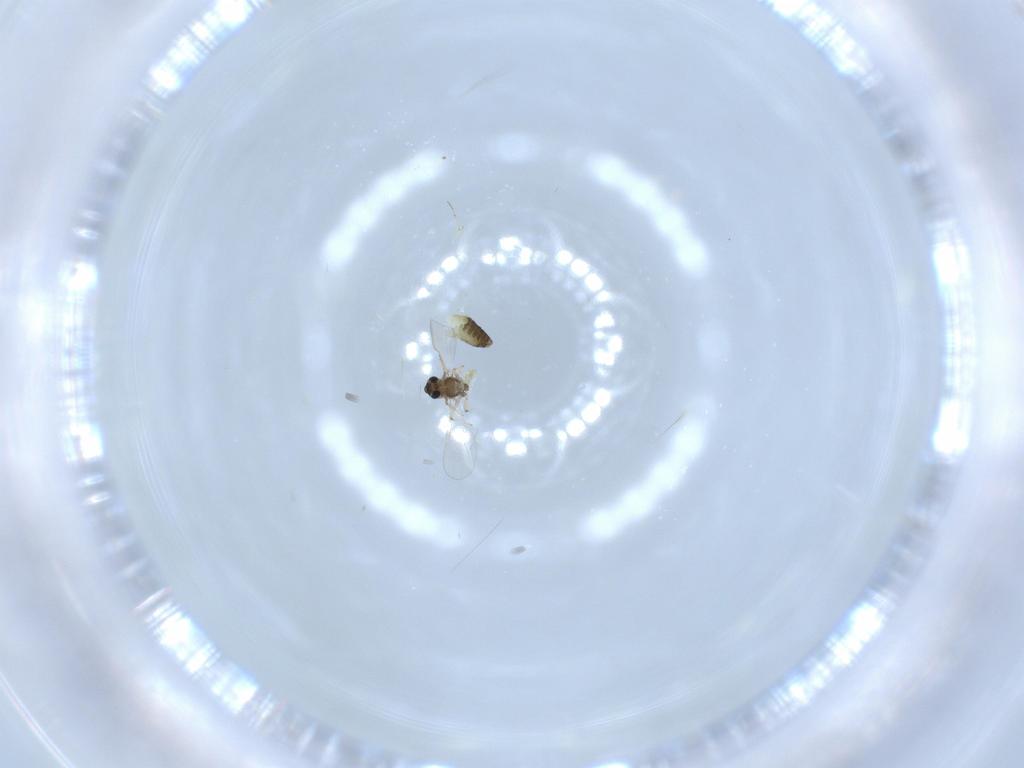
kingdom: Animalia
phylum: Arthropoda
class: Insecta
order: Diptera
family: Chironomidae
